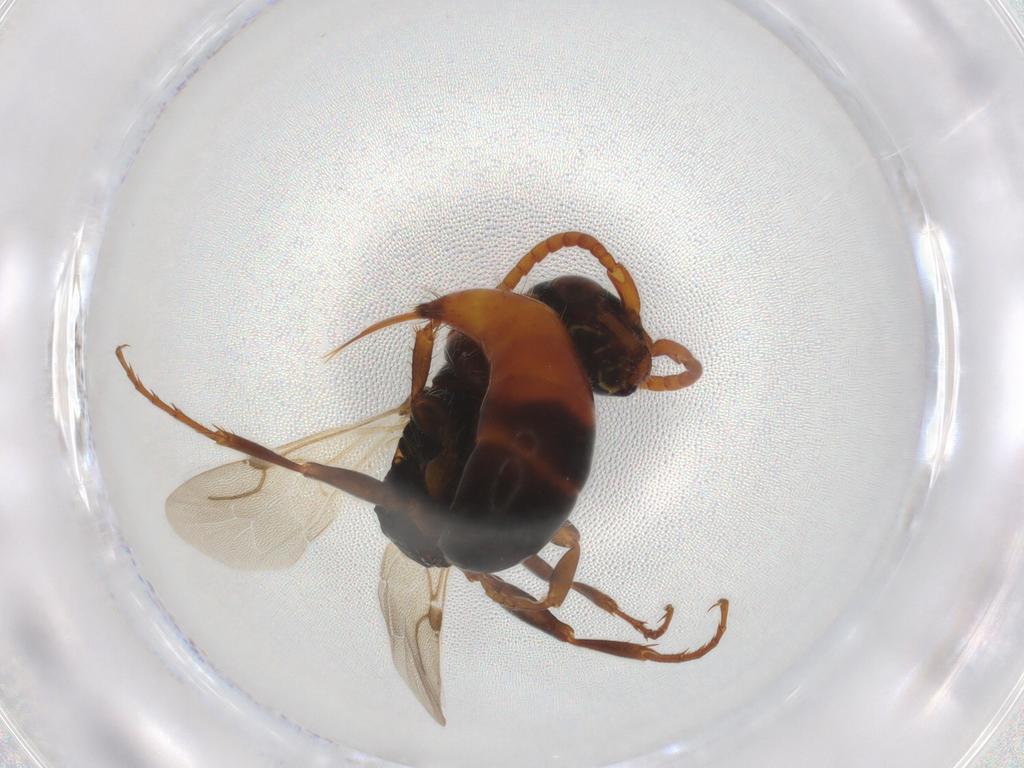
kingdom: Animalia
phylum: Arthropoda
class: Insecta
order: Hymenoptera
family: Bethylidae
